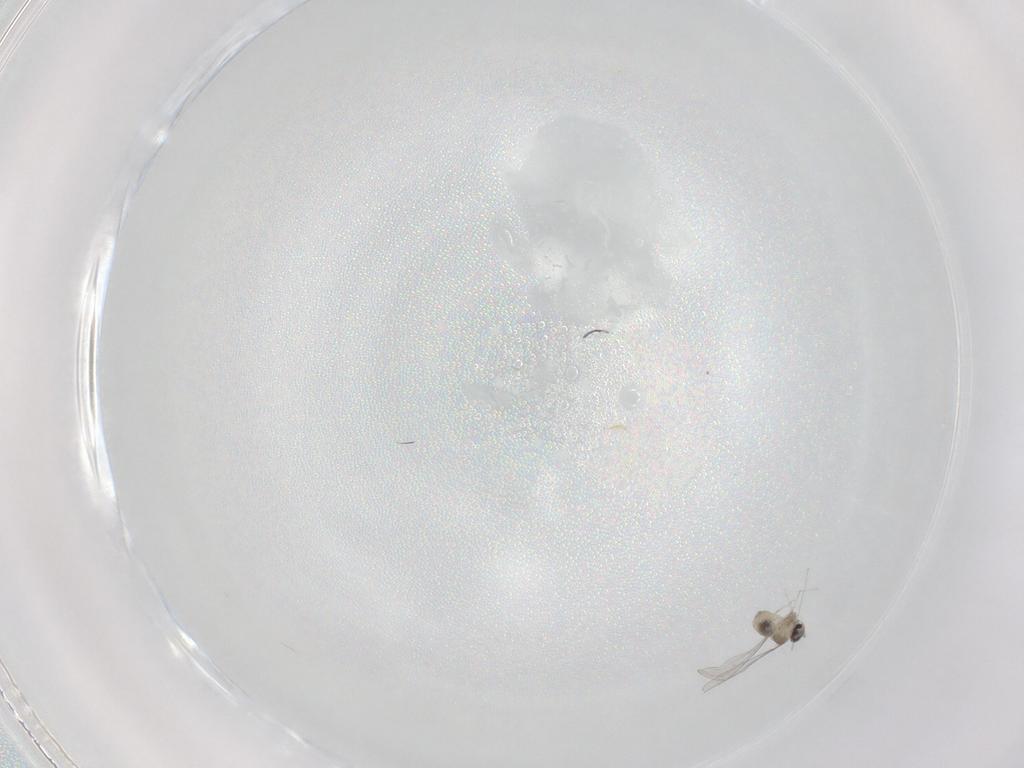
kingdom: Animalia
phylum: Arthropoda
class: Insecta
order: Diptera
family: Cecidomyiidae
